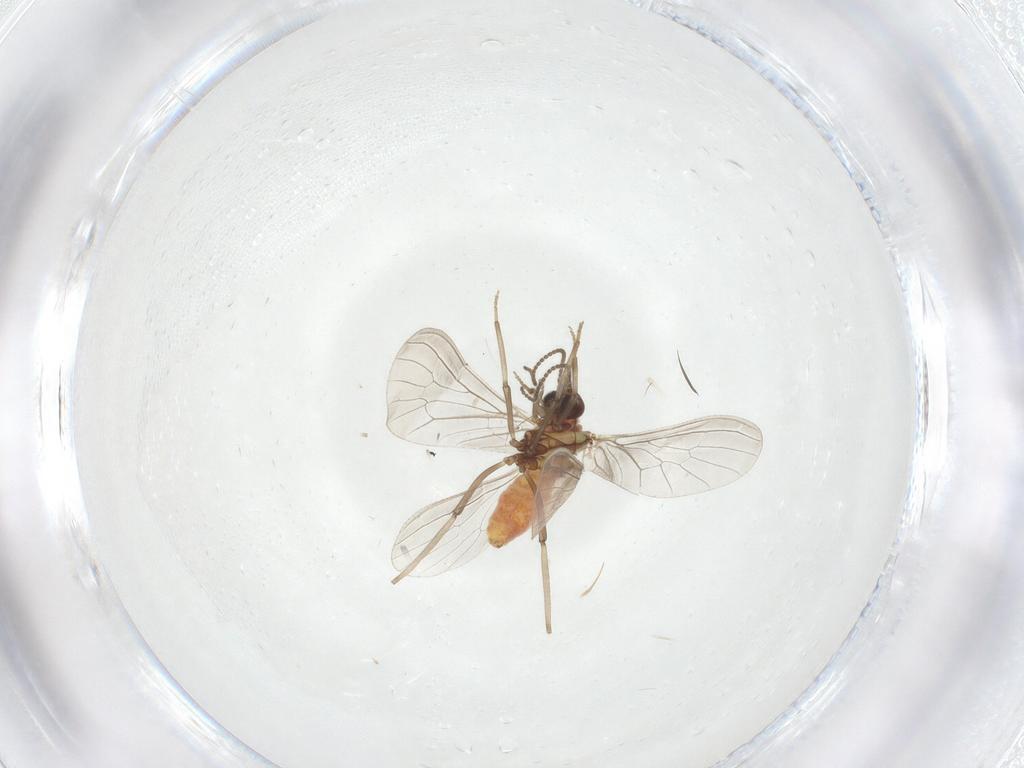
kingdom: Animalia
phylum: Arthropoda
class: Insecta
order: Neuroptera
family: Coniopterygidae
